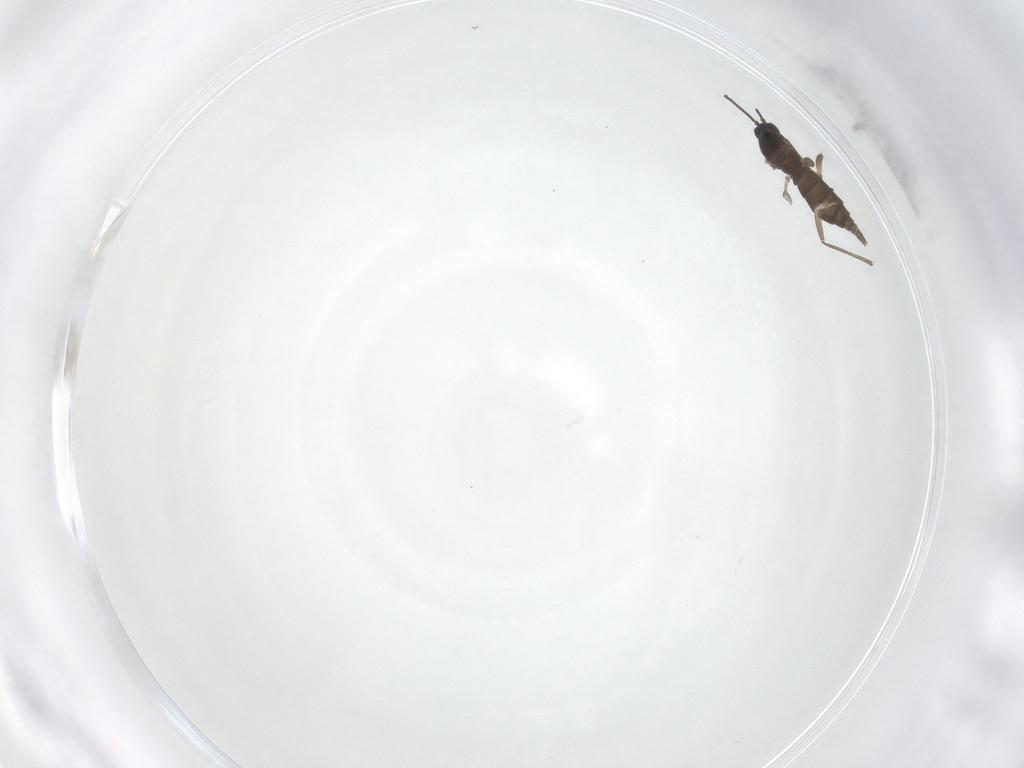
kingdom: Animalia
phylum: Arthropoda
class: Insecta
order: Diptera
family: Sciaridae
